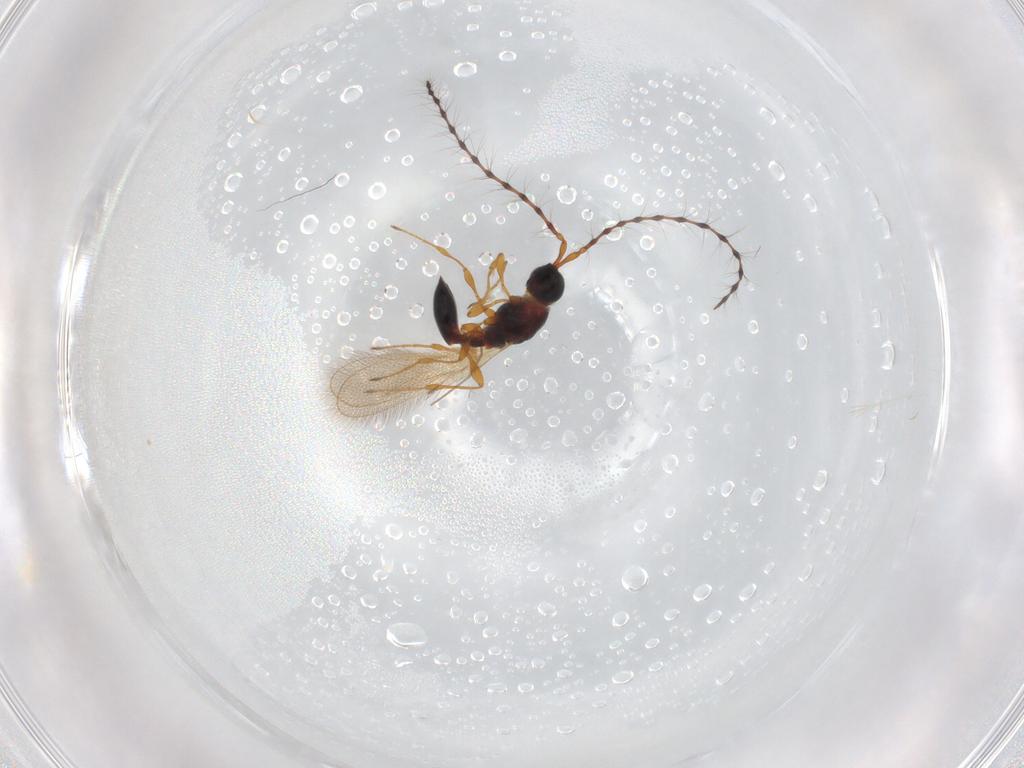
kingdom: Animalia
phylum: Arthropoda
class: Insecta
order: Hymenoptera
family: Diapriidae
